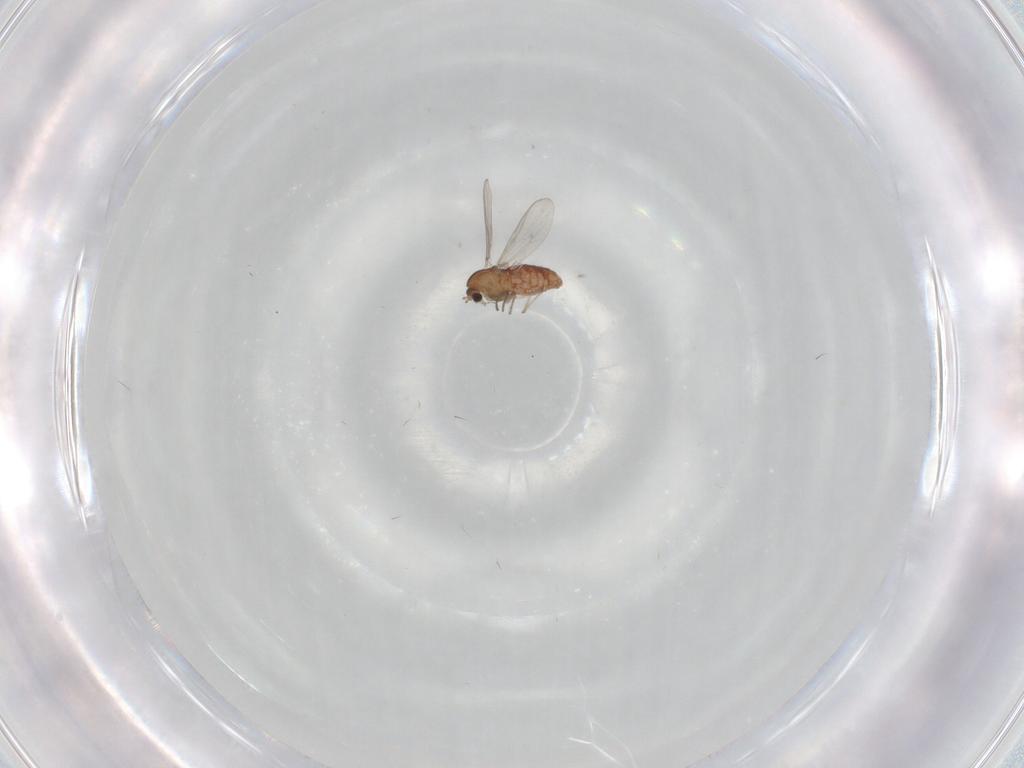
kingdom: Animalia
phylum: Arthropoda
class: Insecta
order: Diptera
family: Chironomidae
